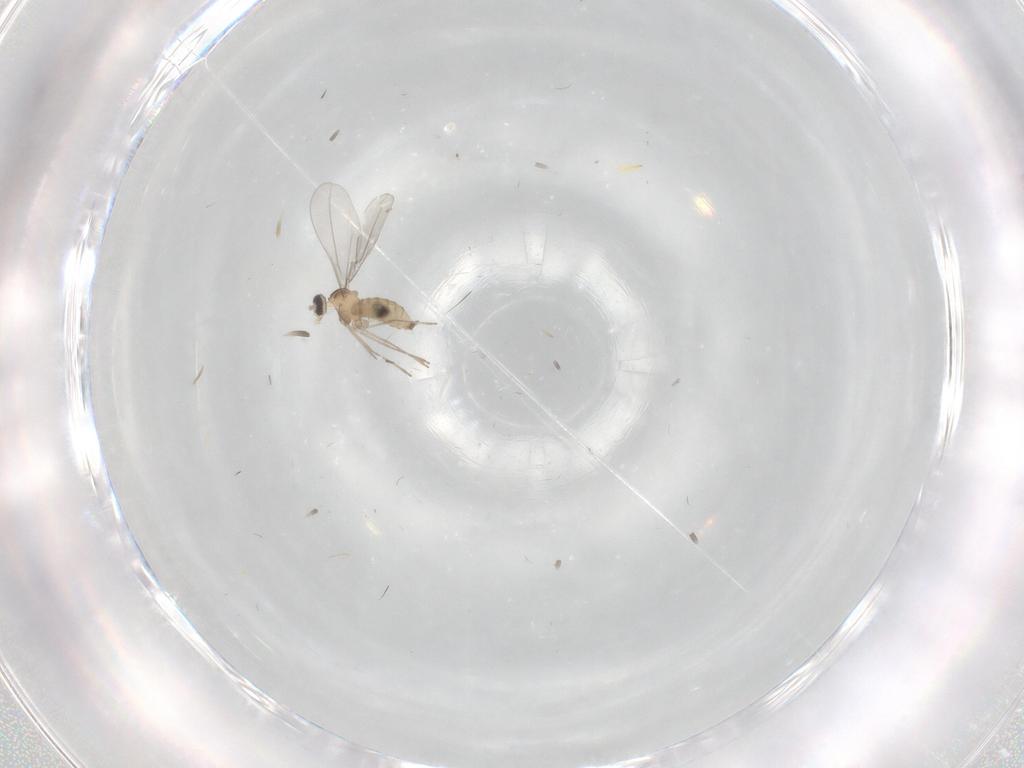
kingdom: Animalia
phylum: Arthropoda
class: Insecta
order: Diptera
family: Cecidomyiidae
